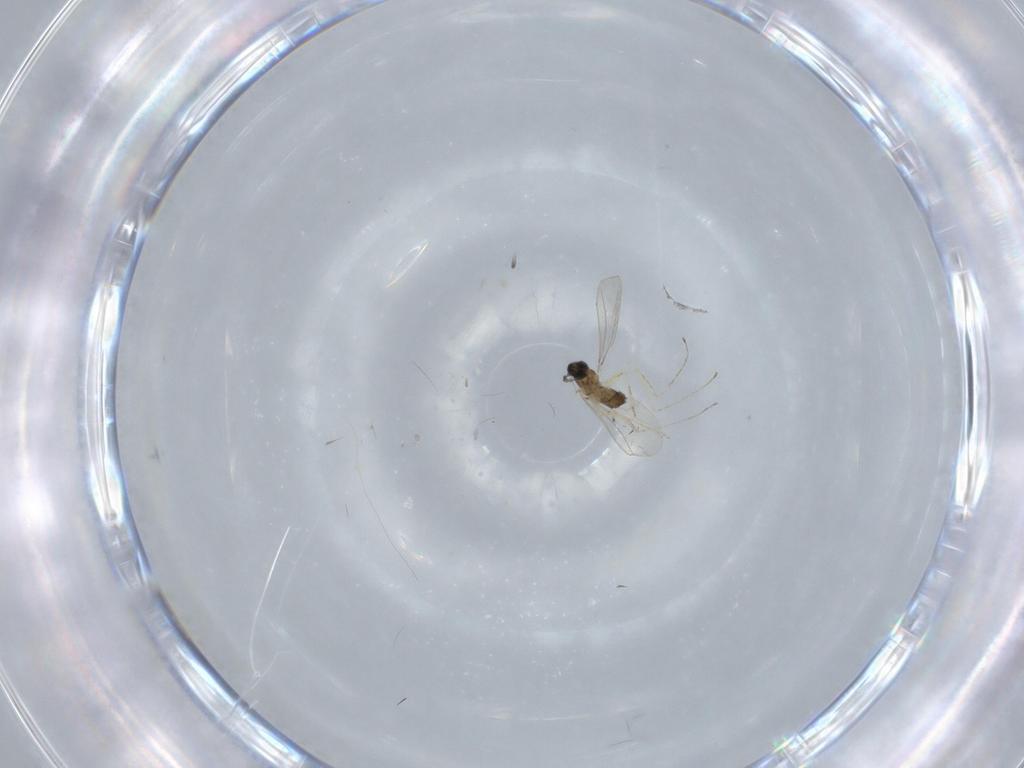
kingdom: Animalia
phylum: Arthropoda
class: Insecta
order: Diptera
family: Cecidomyiidae
